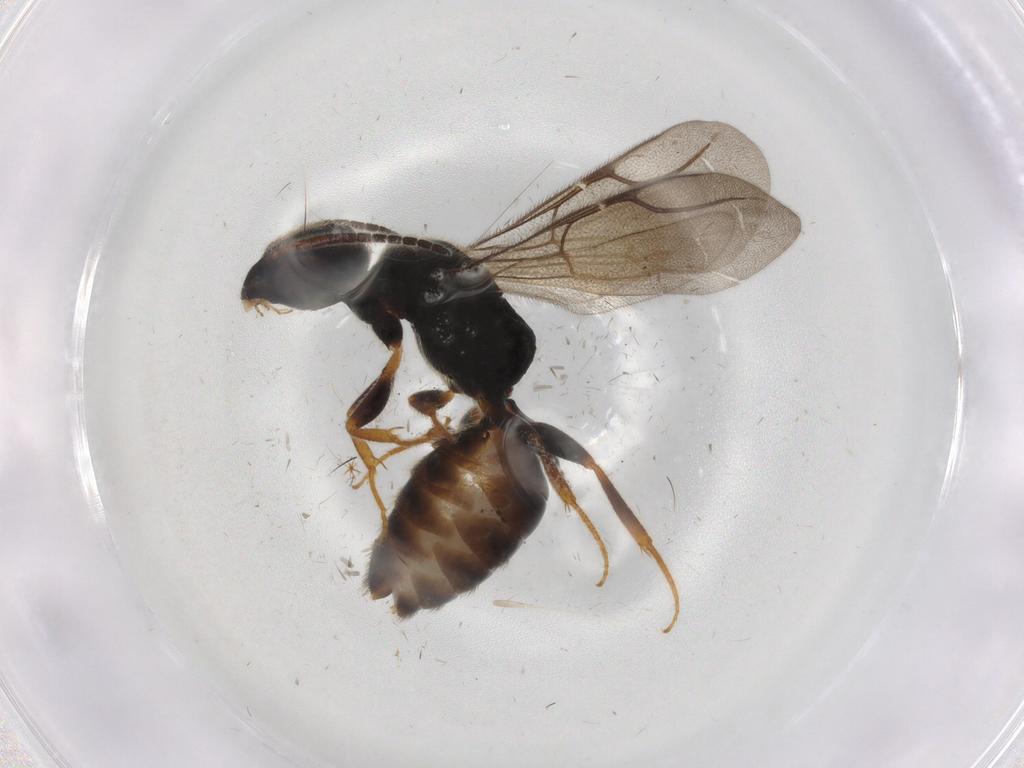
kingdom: Animalia
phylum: Arthropoda
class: Insecta
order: Hymenoptera
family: Bethylidae
